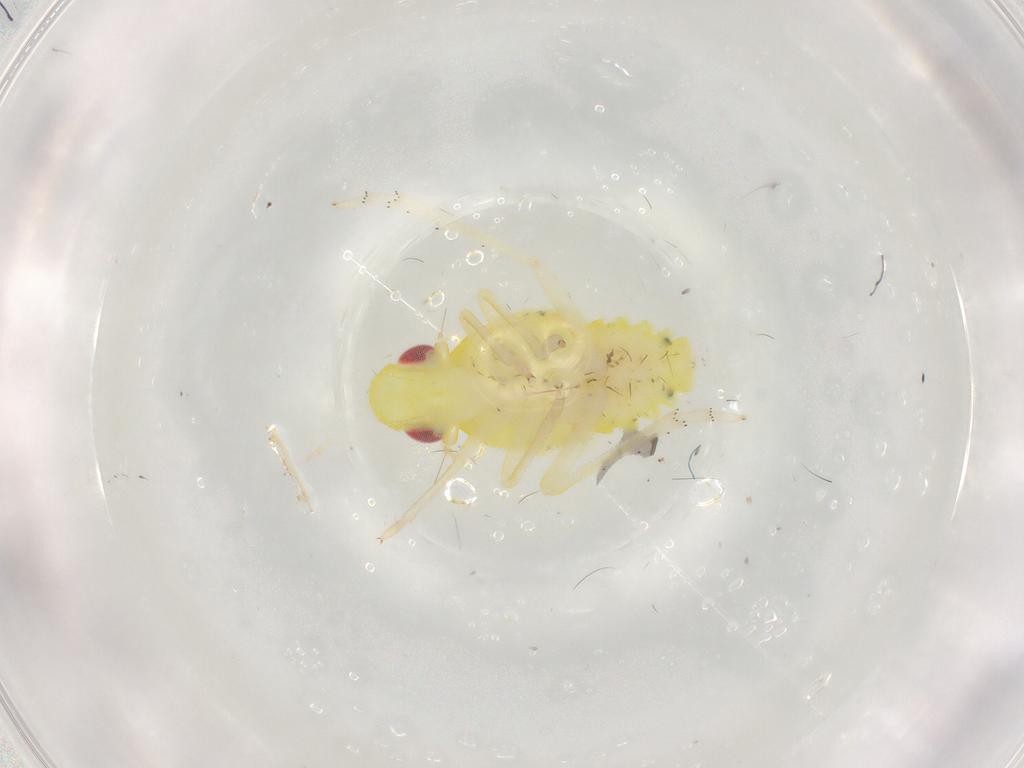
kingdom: Animalia
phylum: Arthropoda
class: Insecta
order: Hemiptera
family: Tropiduchidae
